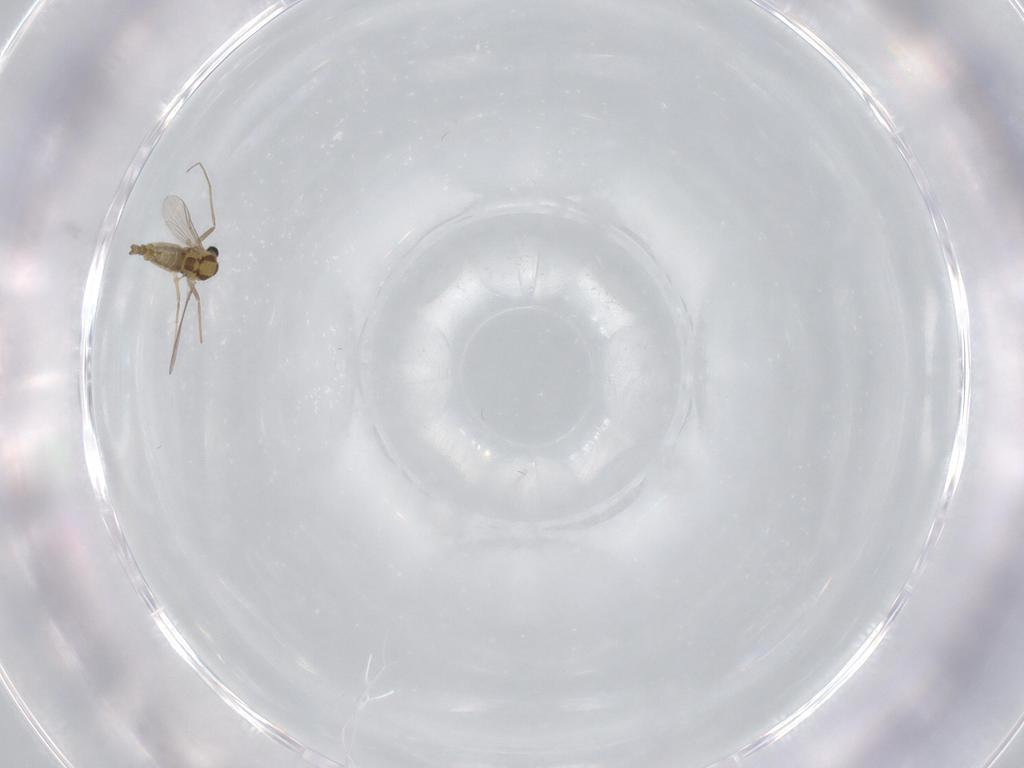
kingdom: Animalia
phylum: Arthropoda
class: Insecta
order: Diptera
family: Chironomidae
